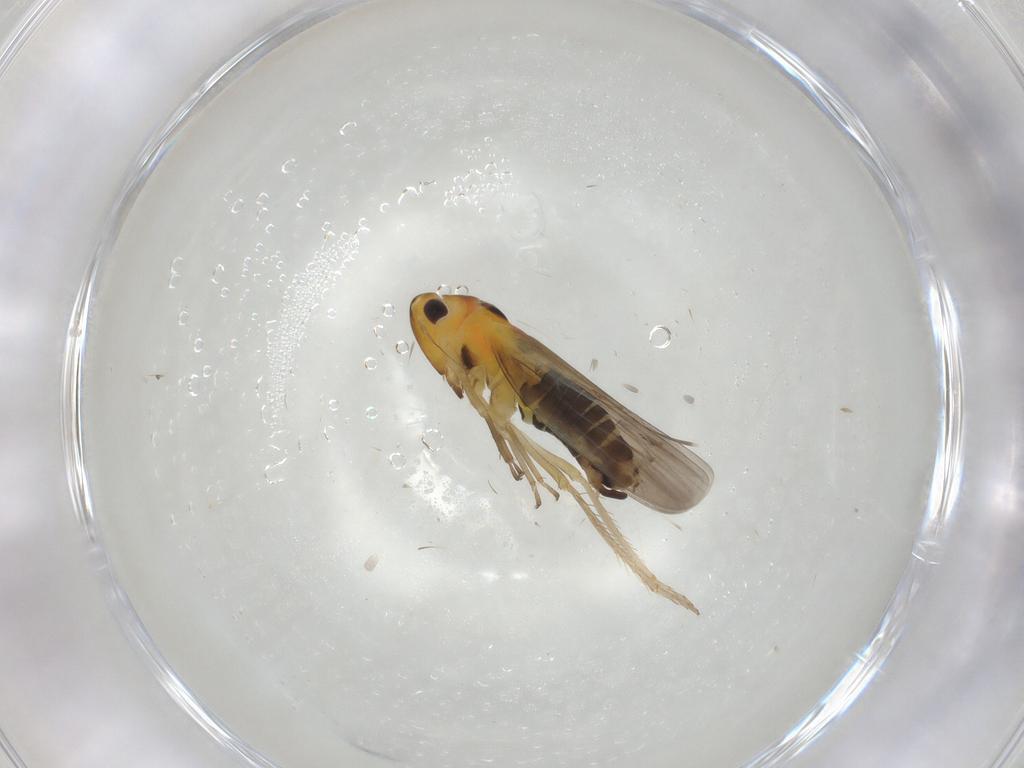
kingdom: Animalia
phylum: Arthropoda
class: Insecta
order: Hemiptera
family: Cicadellidae
